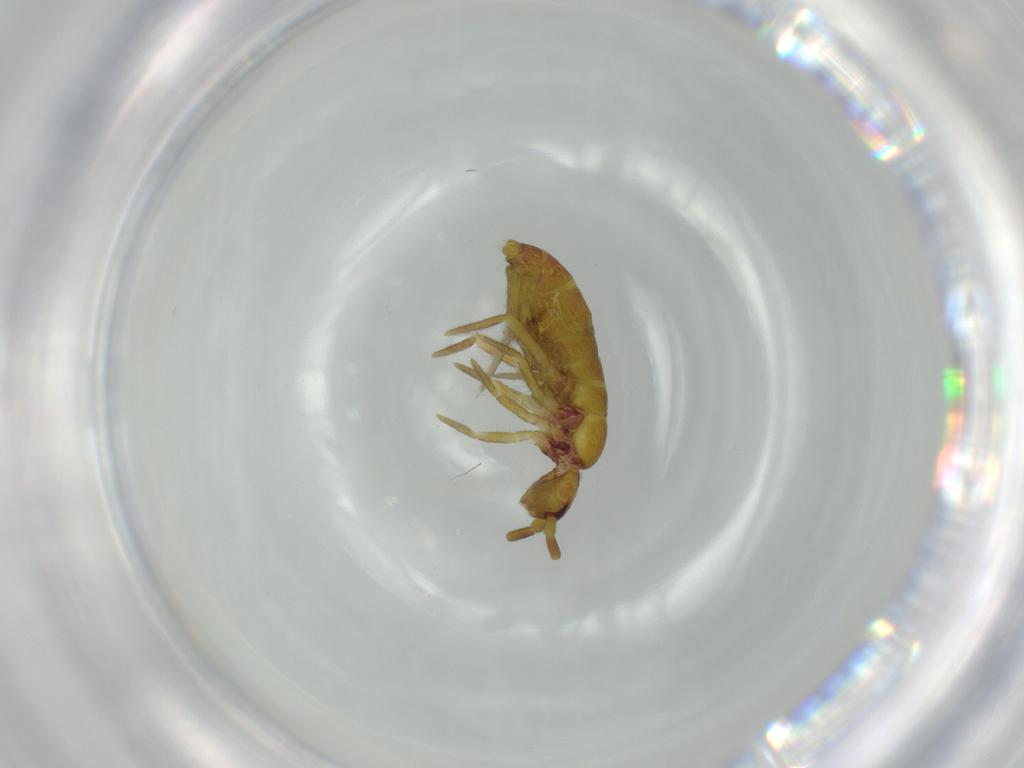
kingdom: Animalia
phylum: Arthropoda
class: Collembola
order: Entomobryomorpha
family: Tomoceridae
